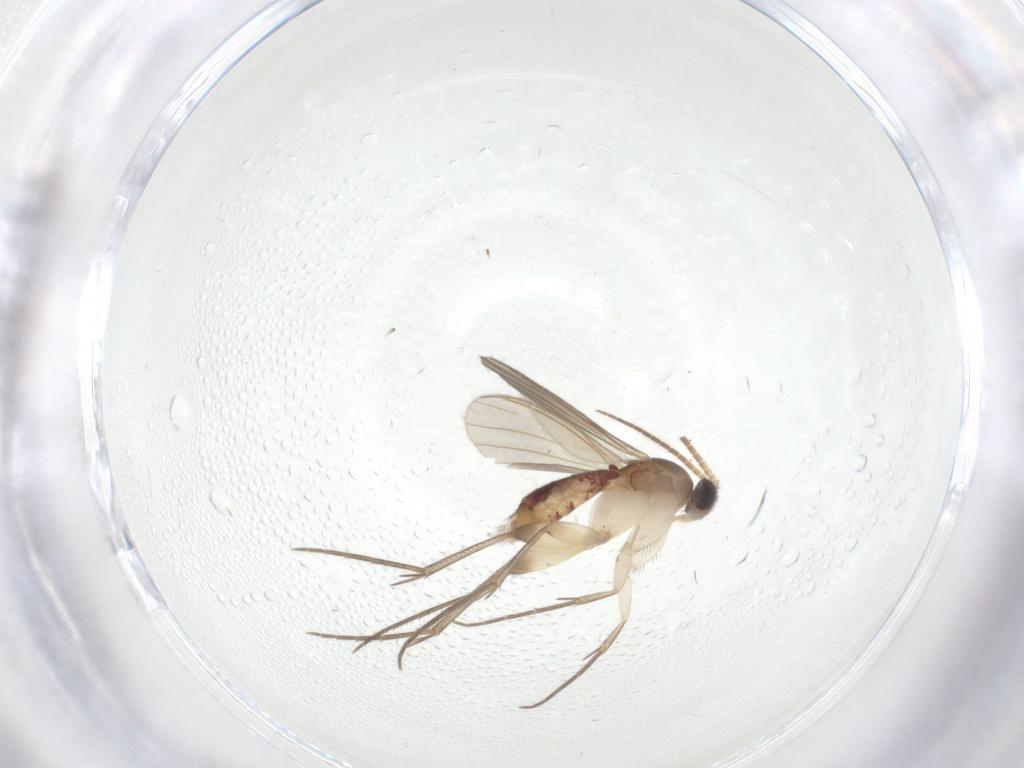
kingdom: Animalia
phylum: Arthropoda
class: Insecta
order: Diptera
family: Mycetophilidae
